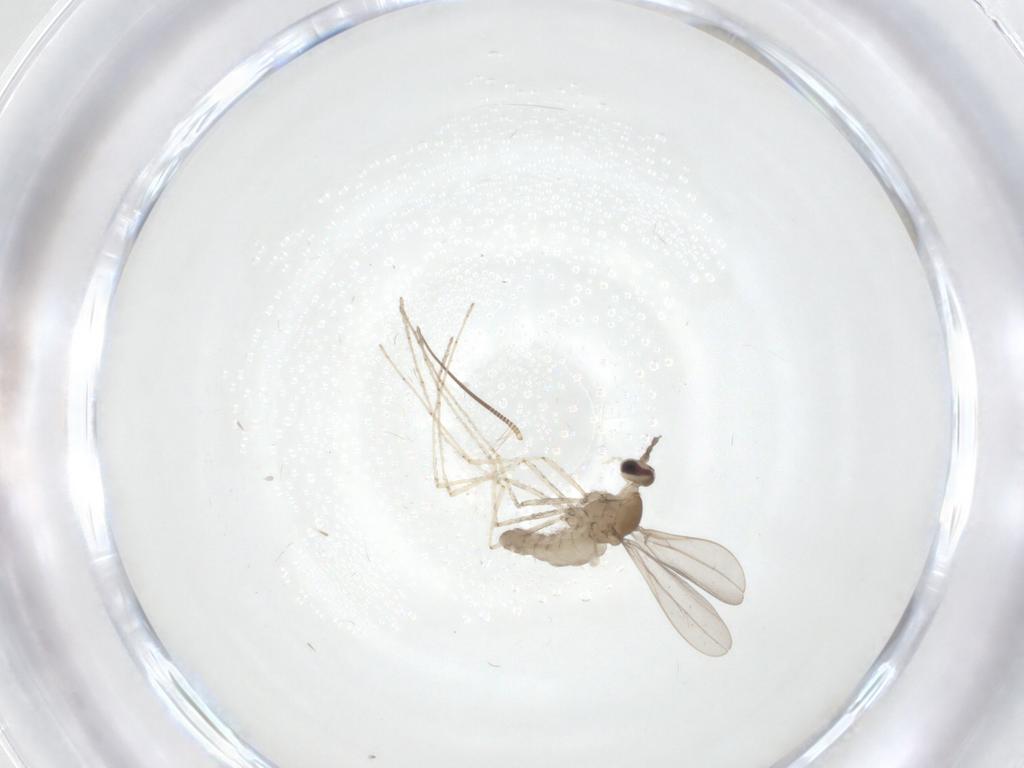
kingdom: Animalia
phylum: Arthropoda
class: Insecta
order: Diptera
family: Cecidomyiidae
